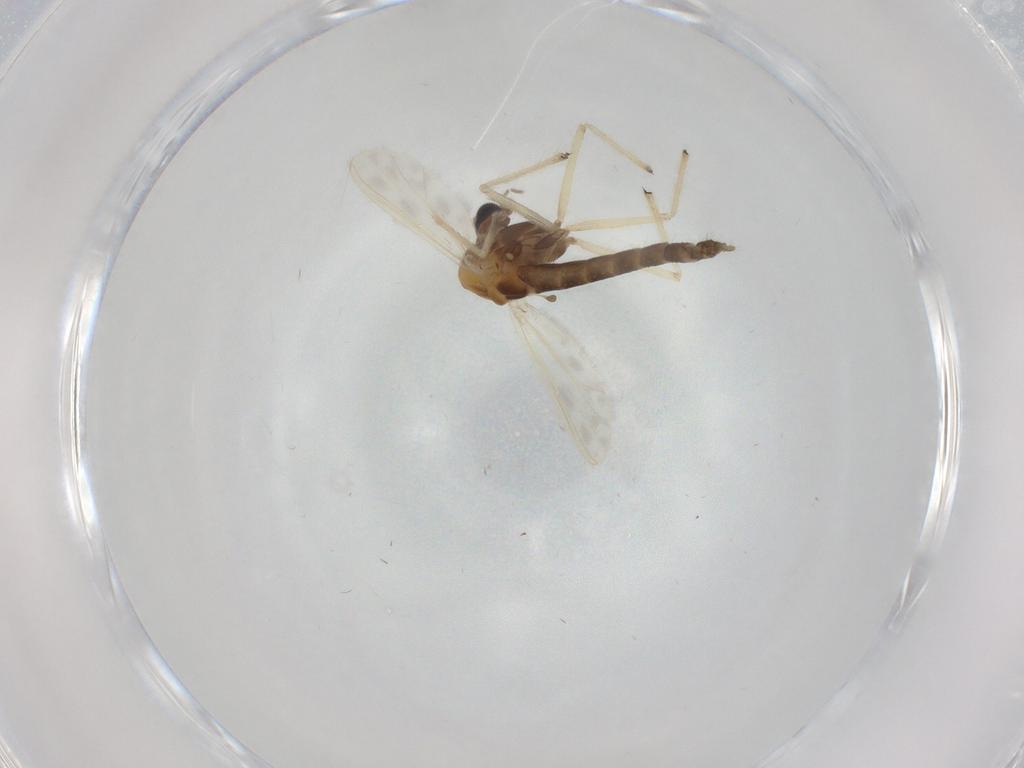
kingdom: Animalia
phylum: Arthropoda
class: Insecta
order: Diptera
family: Chironomidae
